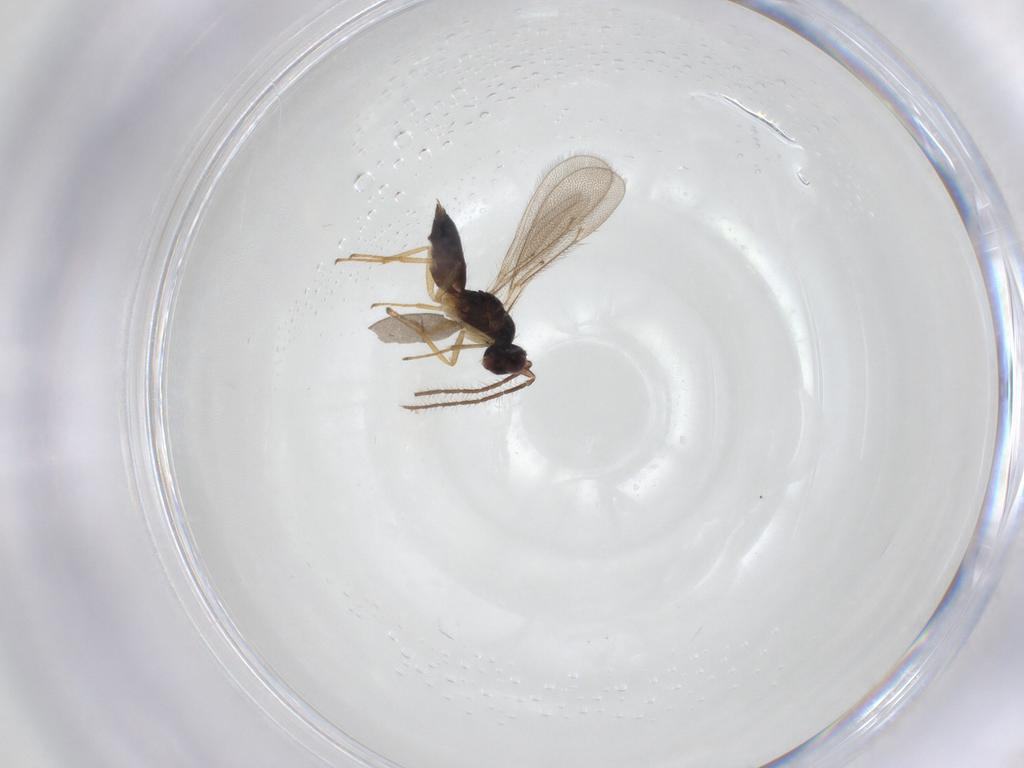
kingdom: Animalia
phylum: Arthropoda
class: Insecta
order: Hymenoptera
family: Eulophidae
